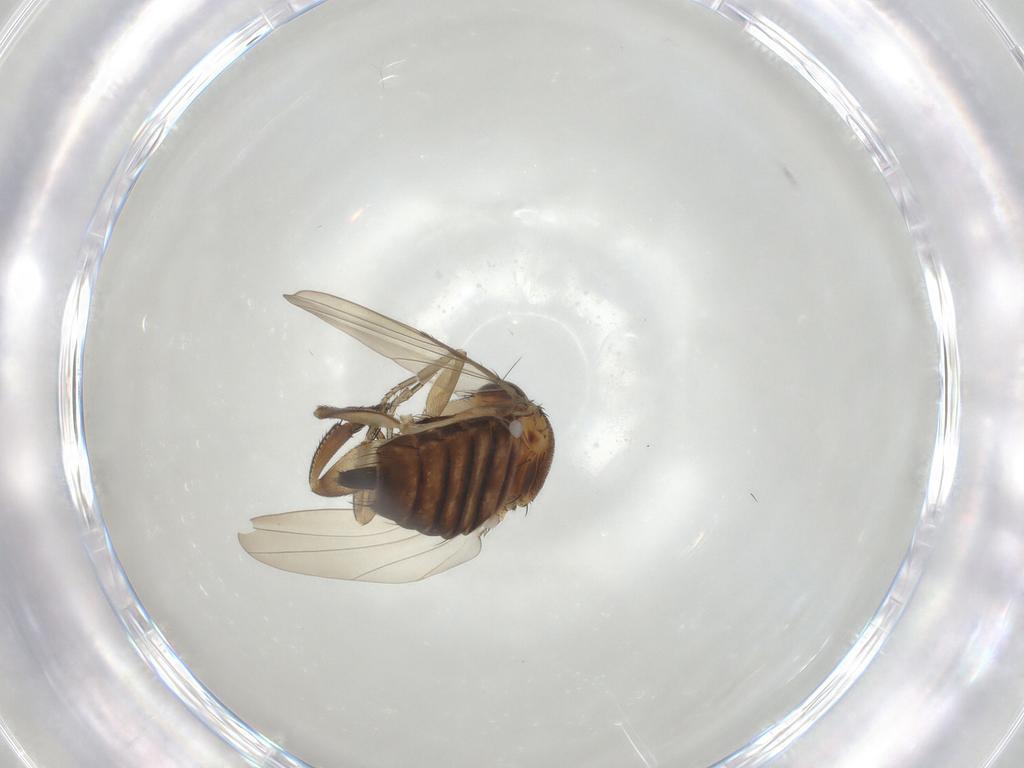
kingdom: Animalia
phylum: Arthropoda
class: Insecta
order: Diptera
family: Phoridae
